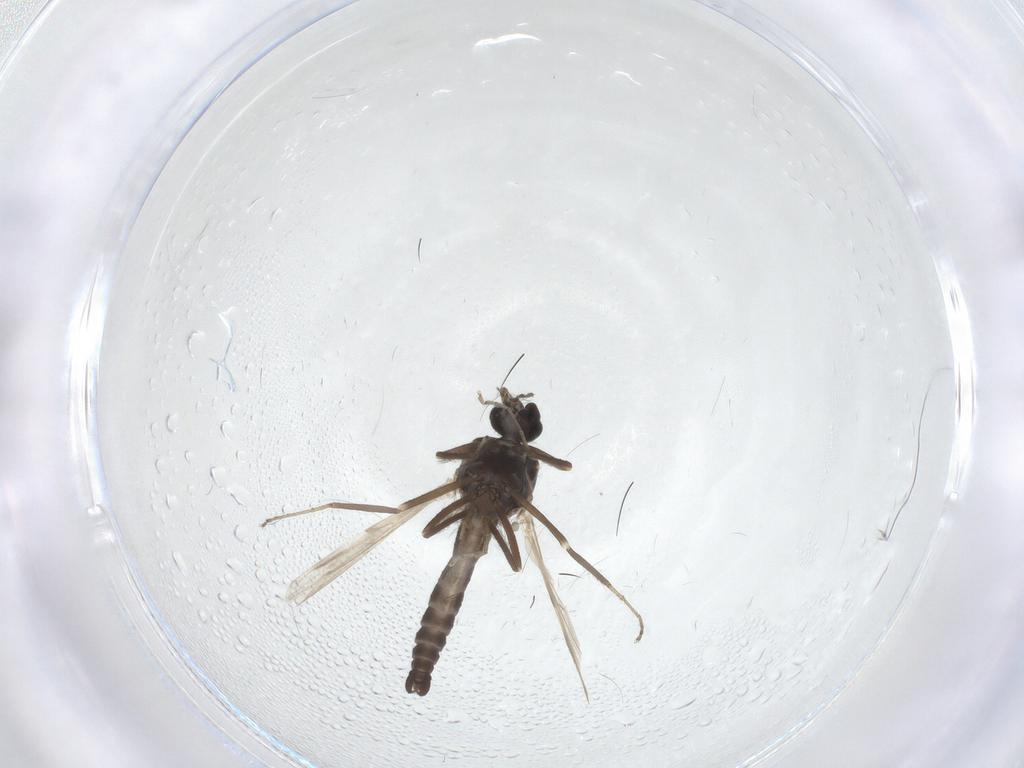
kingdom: Animalia
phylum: Arthropoda
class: Insecta
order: Diptera
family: Ceratopogonidae
